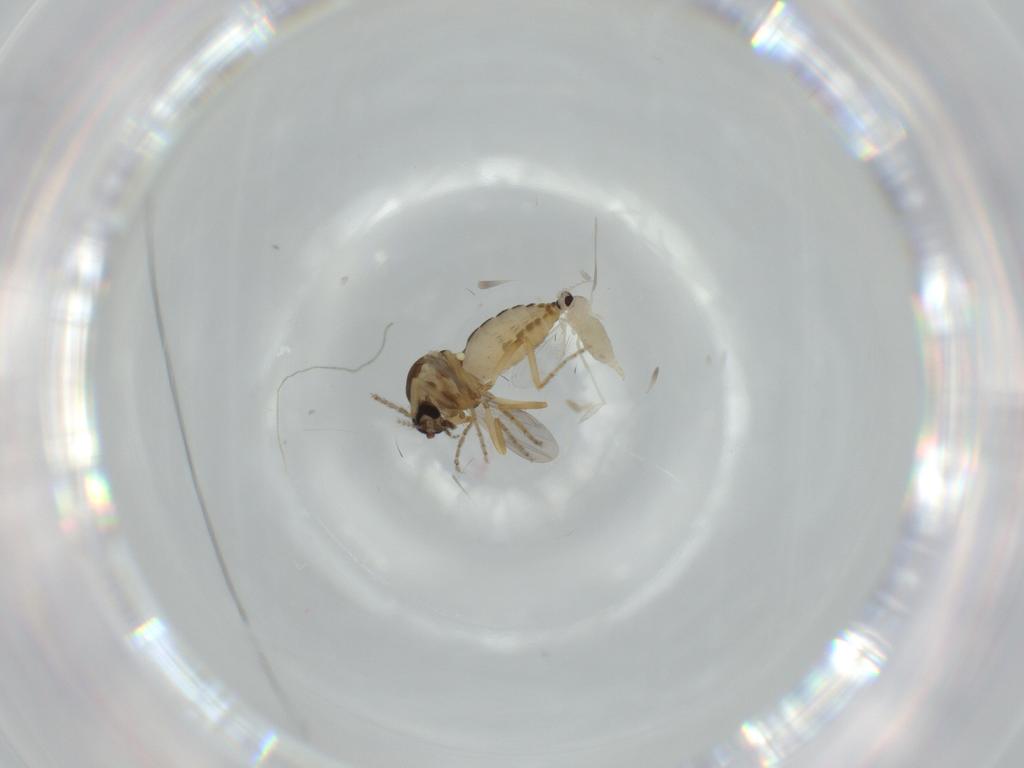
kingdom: Animalia
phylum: Arthropoda
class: Insecta
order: Diptera
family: Ceratopogonidae
